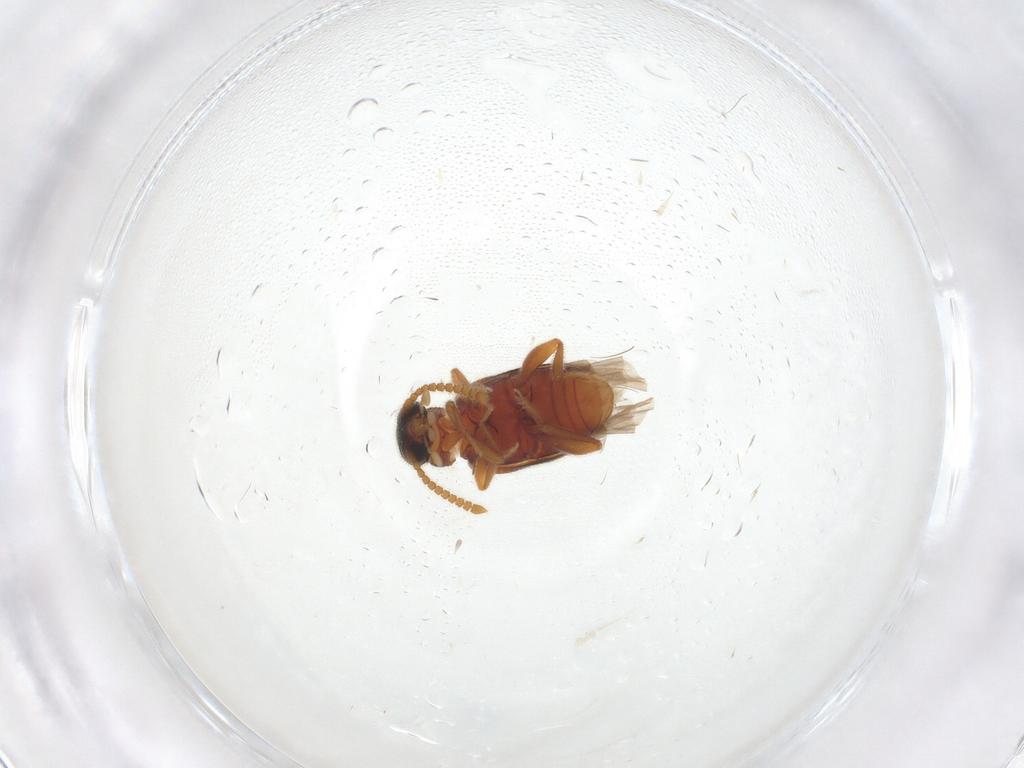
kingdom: Animalia
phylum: Arthropoda
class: Insecta
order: Coleoptera
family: Aderidae
